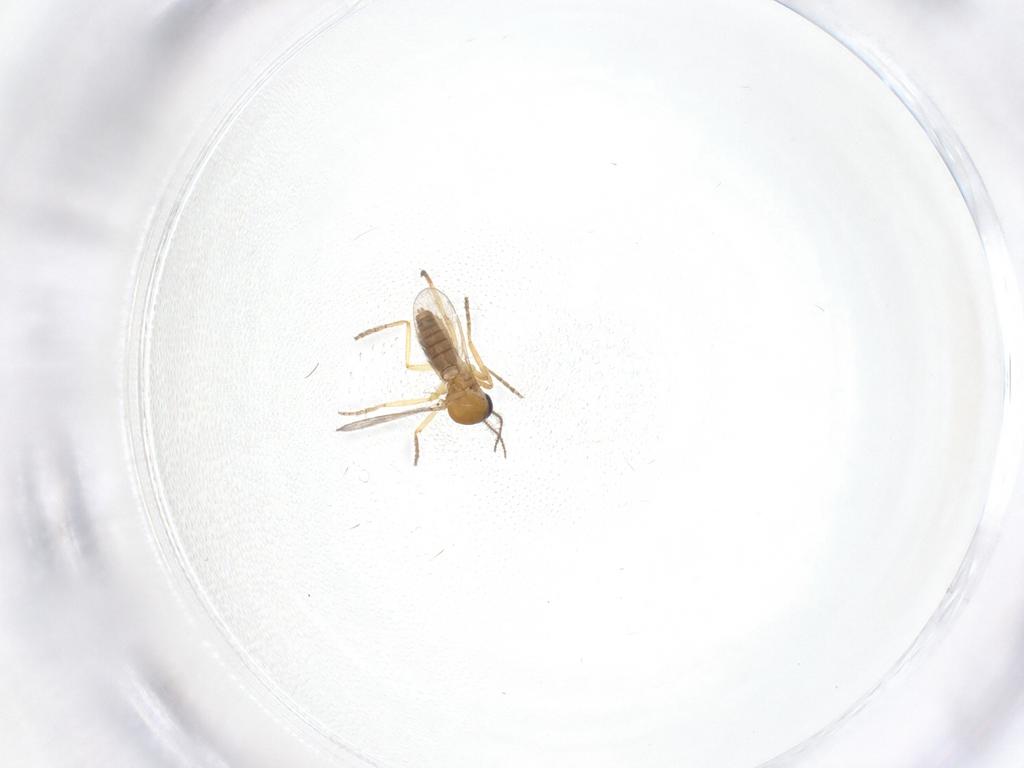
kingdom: Animalia
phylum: Arthropoda
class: Insecta
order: Diptera
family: Ceratopogonidae
